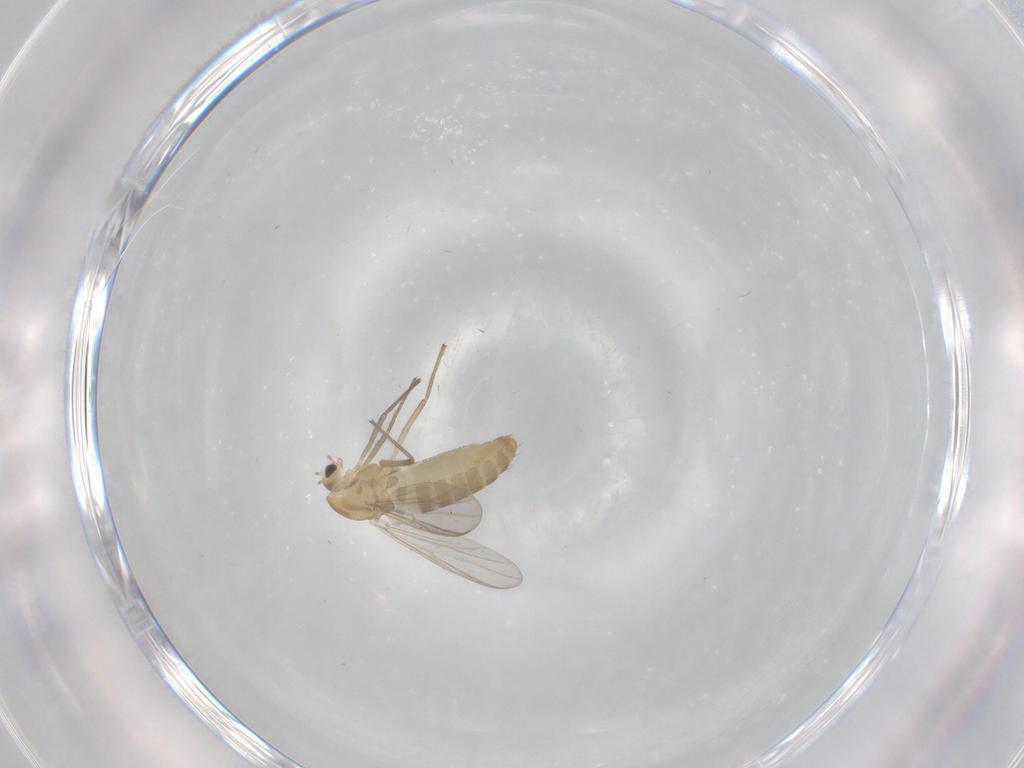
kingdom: Animalia
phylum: Arthropoda
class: Insecta
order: Diptera
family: Chironomidae
